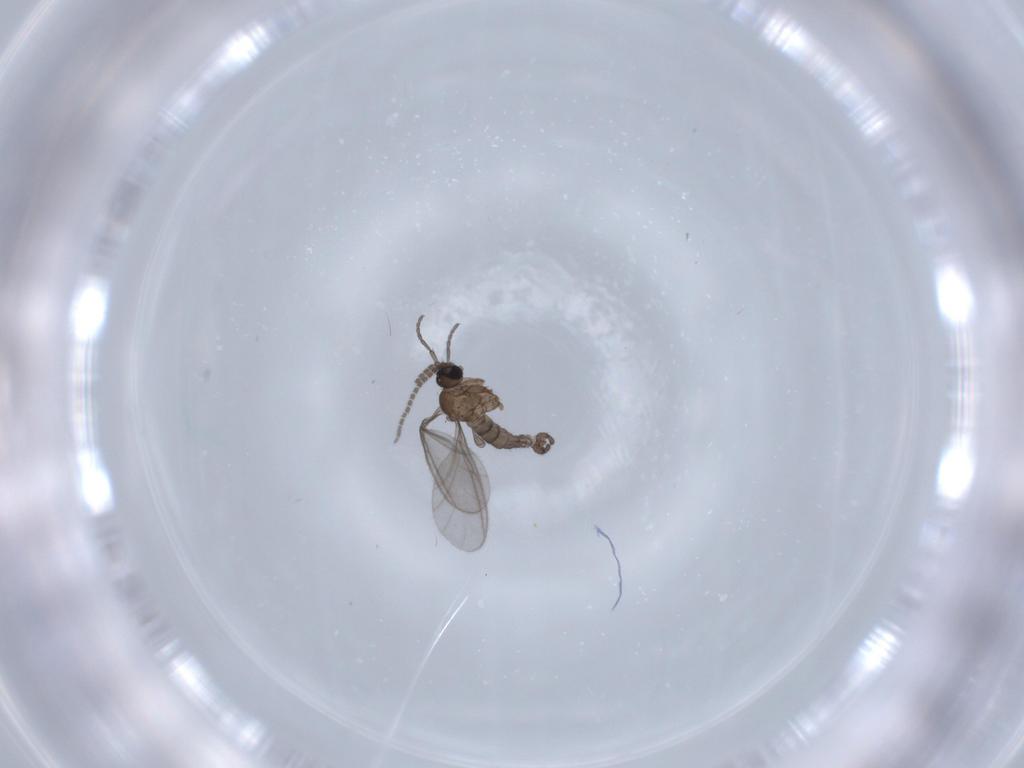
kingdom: Animalia
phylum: Arthropoda
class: Insecta
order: Diptera
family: Sciaridae
